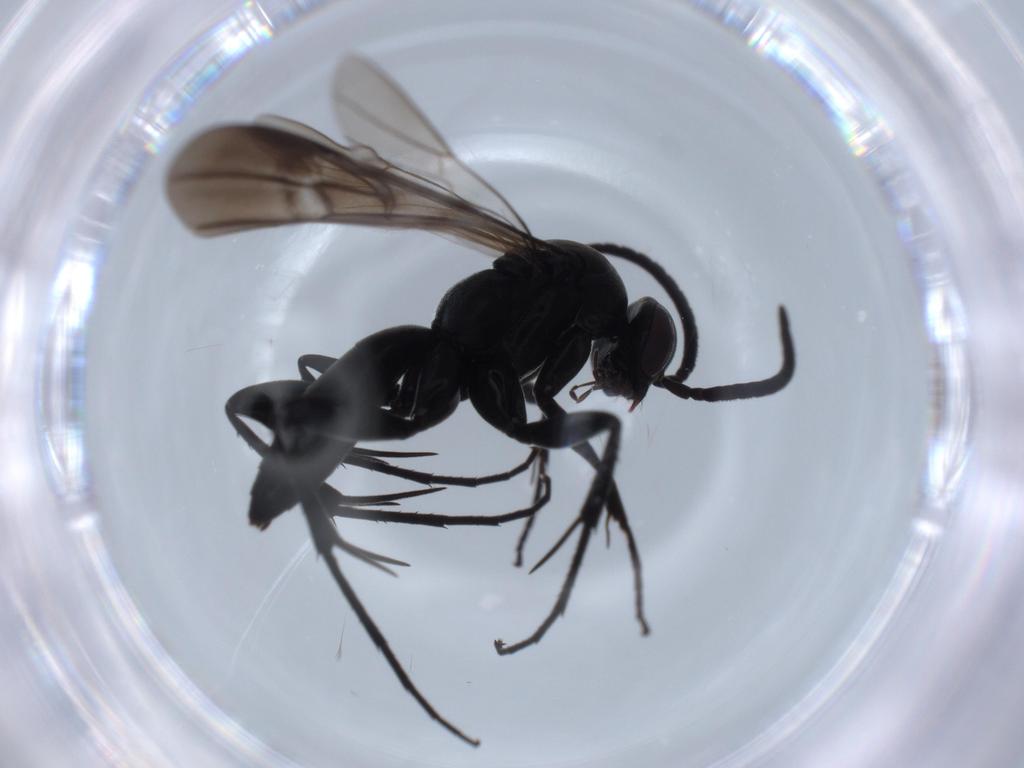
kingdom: Animalia
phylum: Arthropoda
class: Insecta
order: Hymenoptera
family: Pompilidae
